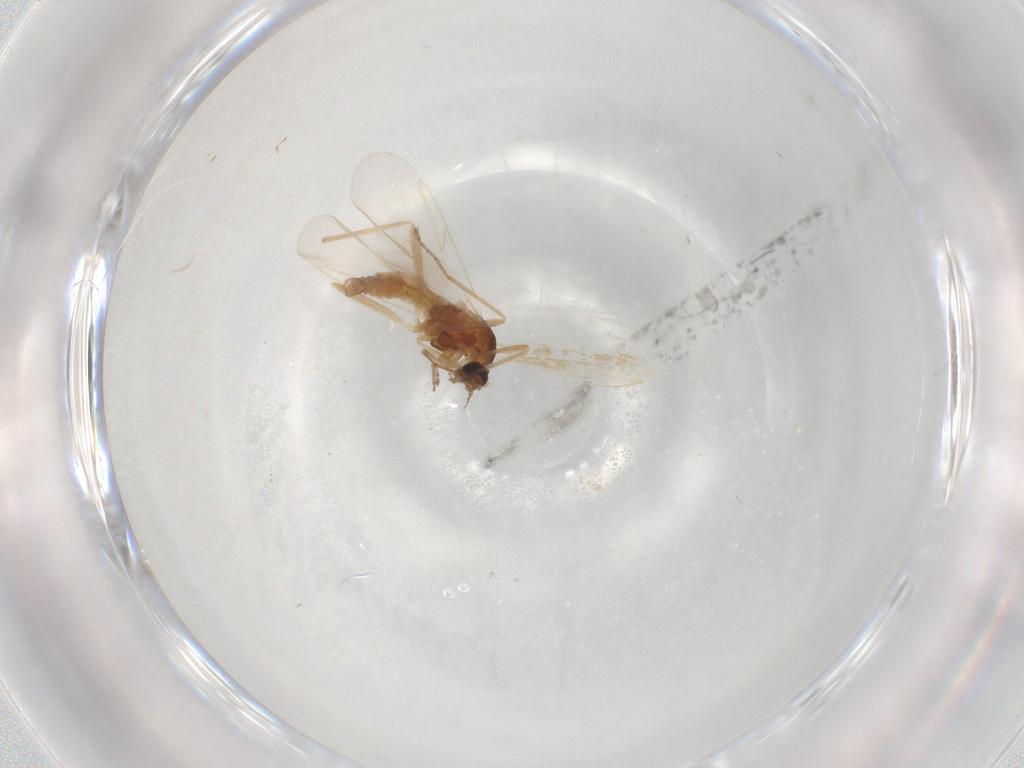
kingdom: Animalia
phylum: Arthropoda
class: Insecta
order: Diptera
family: Cecidomyiidae
